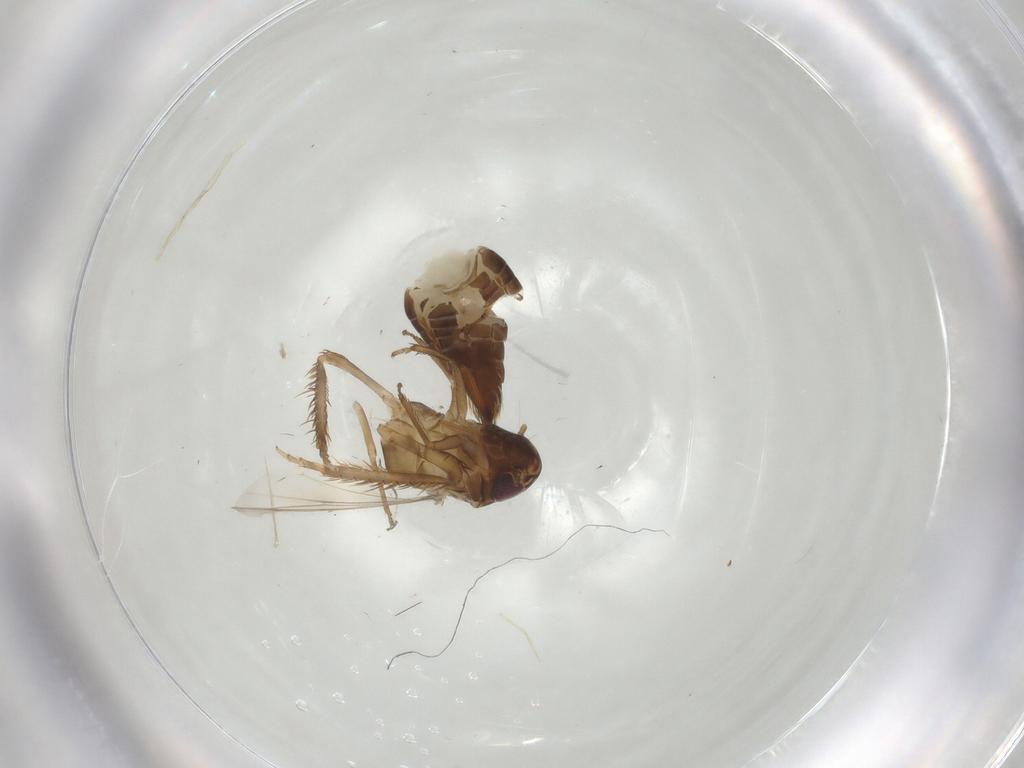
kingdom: Animalia
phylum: Arthropoda
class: Insecta
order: Hemiptera
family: Cicadellidae
